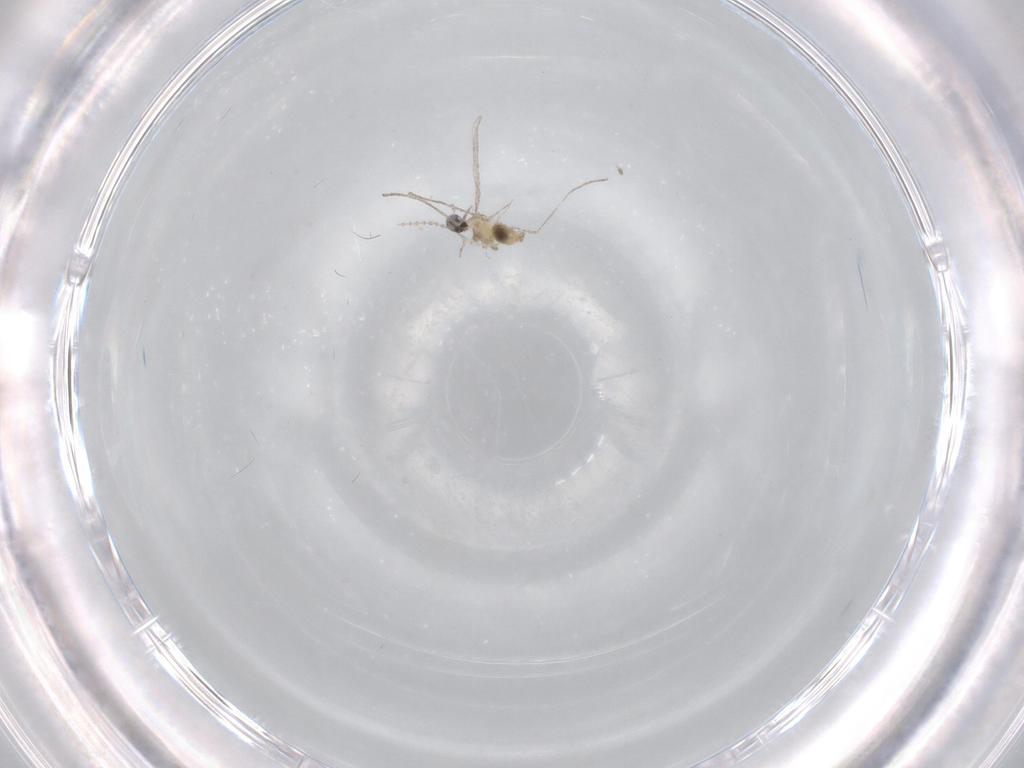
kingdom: Animalia
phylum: Arthropoda
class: Insecta
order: Diptera
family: Cecidomyiidae
